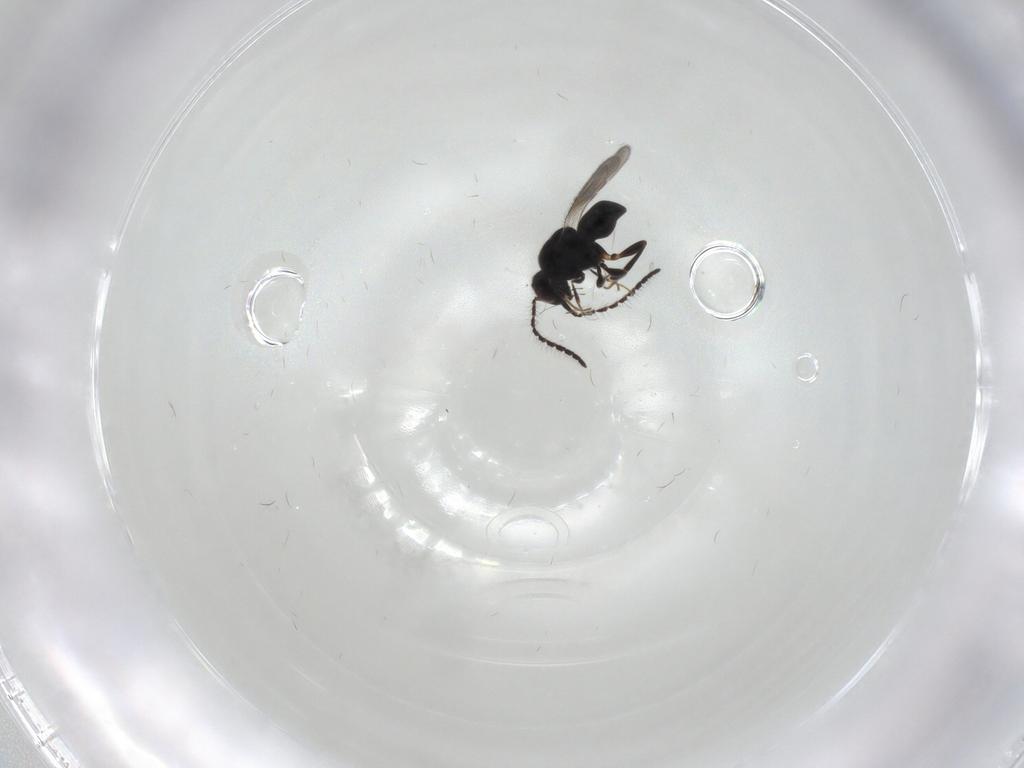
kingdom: Animalia
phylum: Arthropoda
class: Insecta
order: Hymenoptera
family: Ceraphronidae
